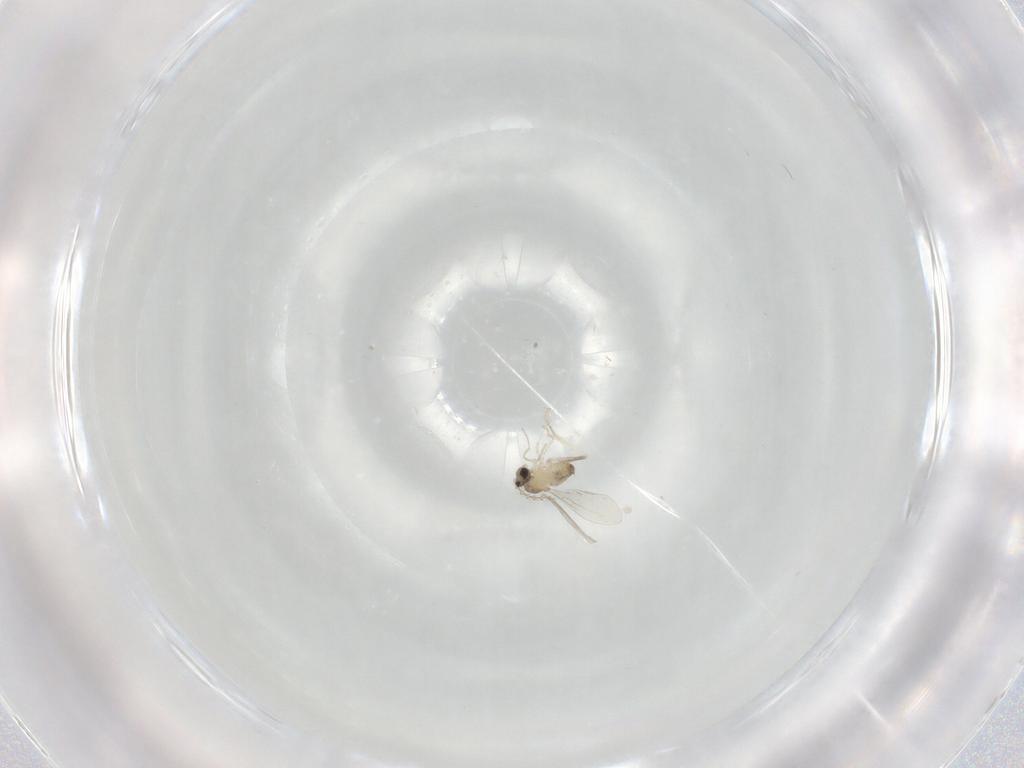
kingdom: Animalia
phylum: Arthropoda
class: Insecta
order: Diptera
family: Cecidomyiidae
